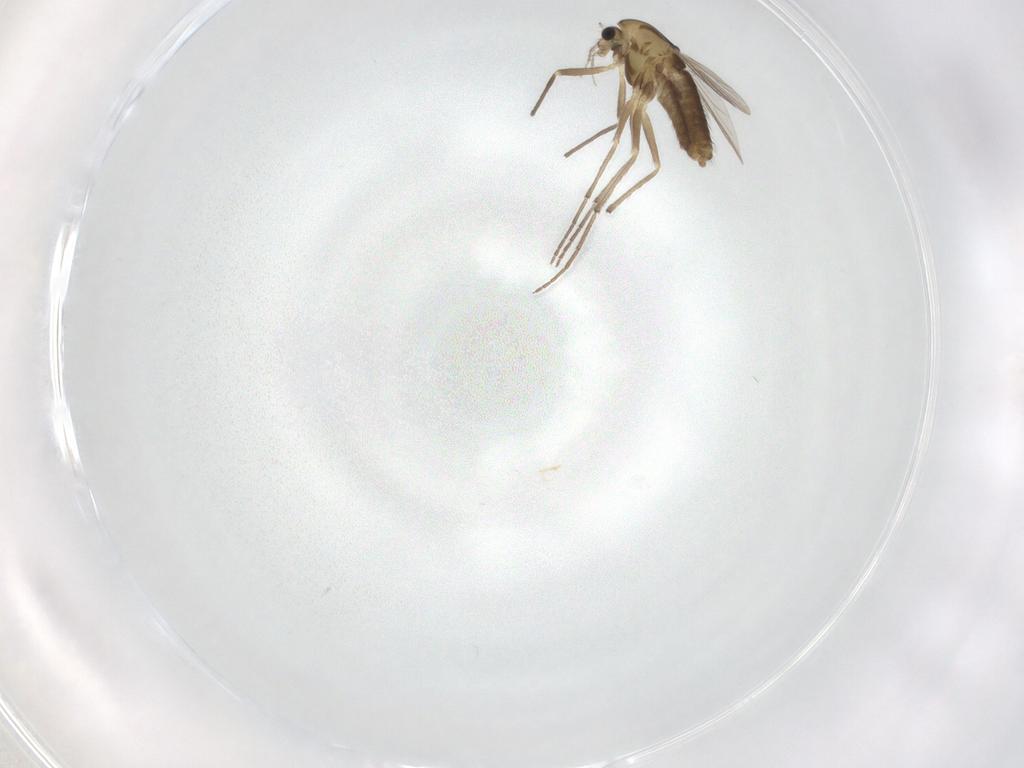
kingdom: Animalia
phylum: Arthropoda
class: Insecta
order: Diptera
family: Chironomidae
